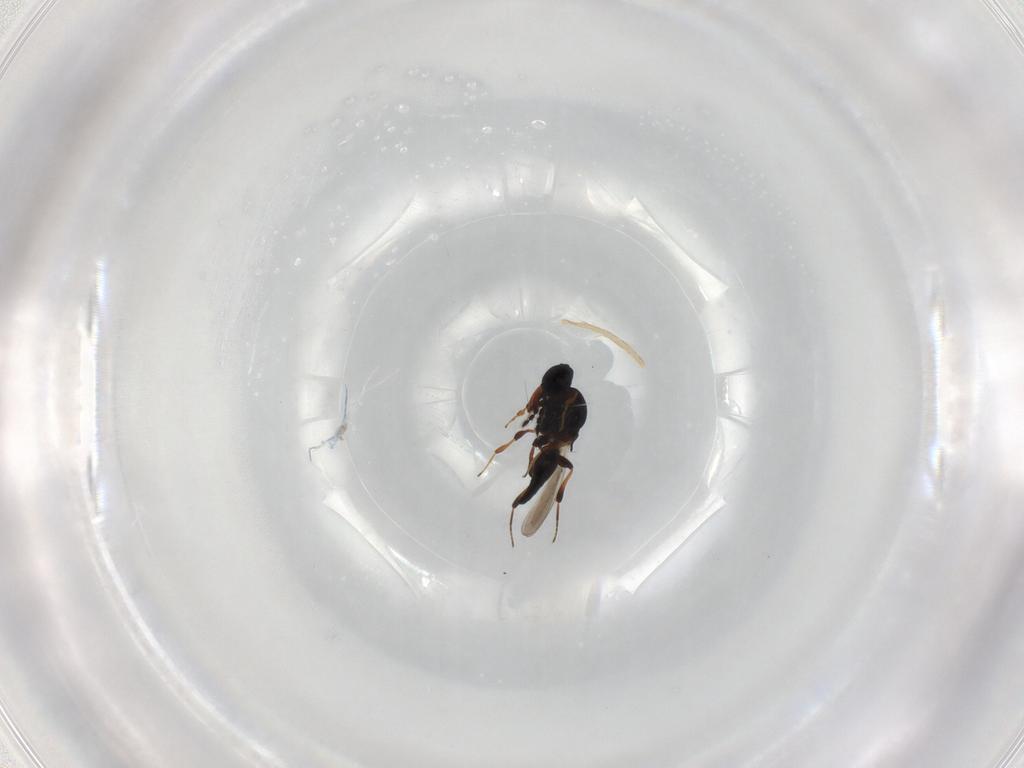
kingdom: Animalia
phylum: Arthropoda
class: Insecta
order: Hymenoptera
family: Platygastridae
